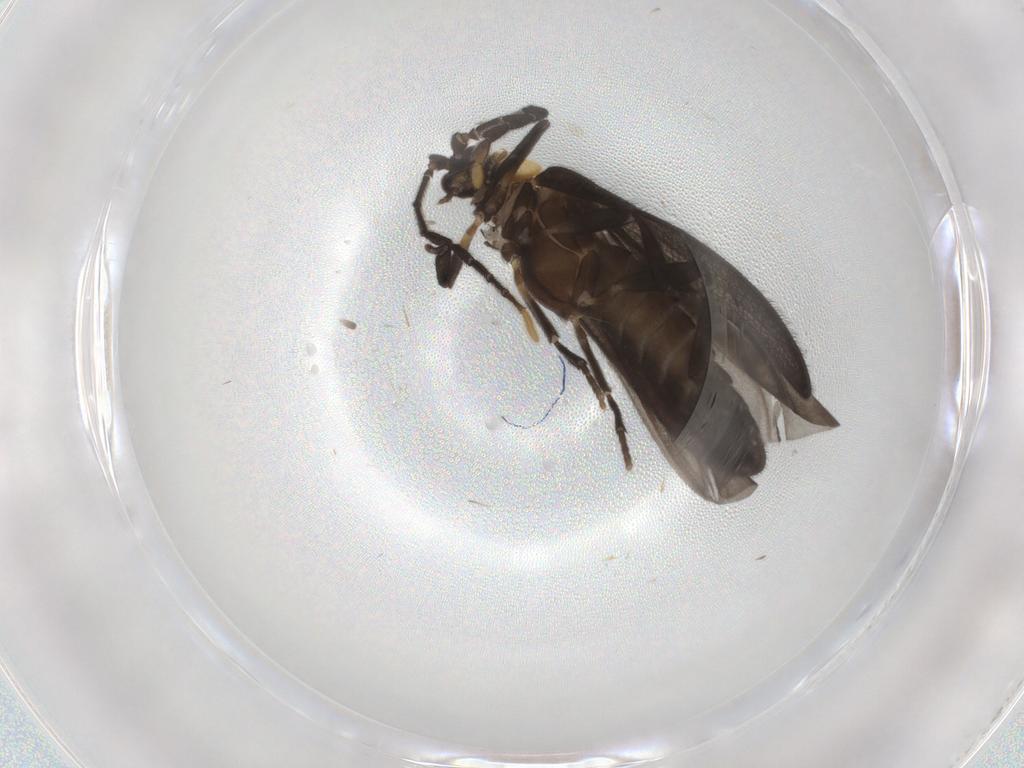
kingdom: Animalia
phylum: Arthropoda
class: Insecta
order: Coleoptera
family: Lycidae
